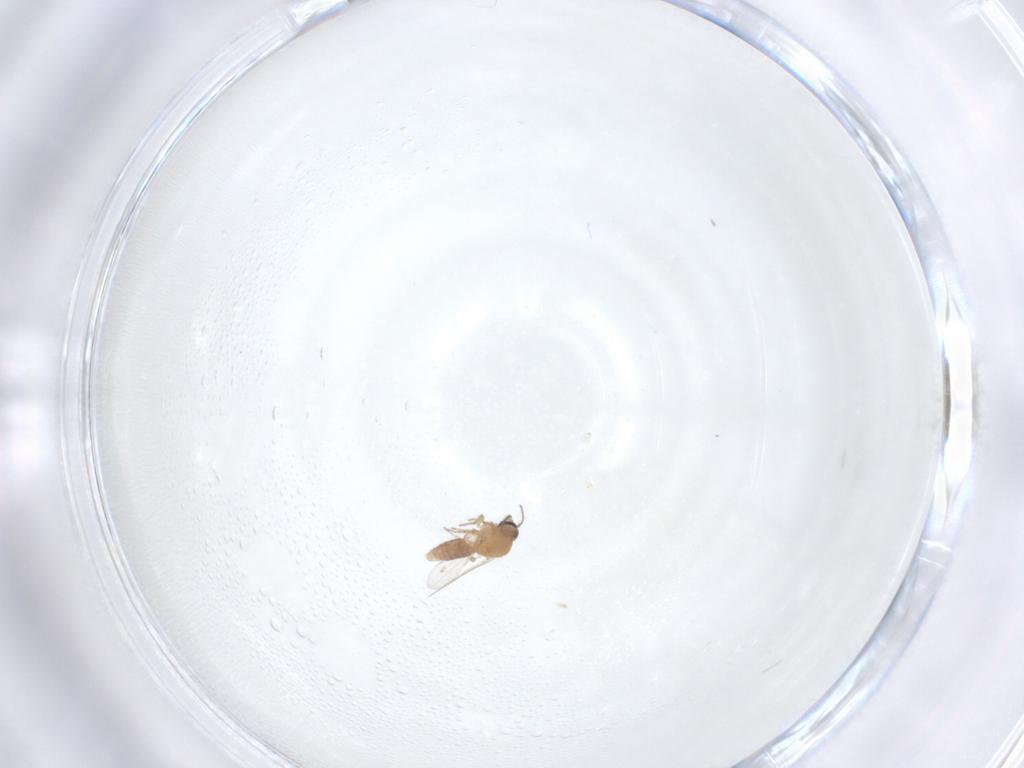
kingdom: Animalia
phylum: Arthropoda
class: Insecta
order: Diptera
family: Ceratopogonidae
